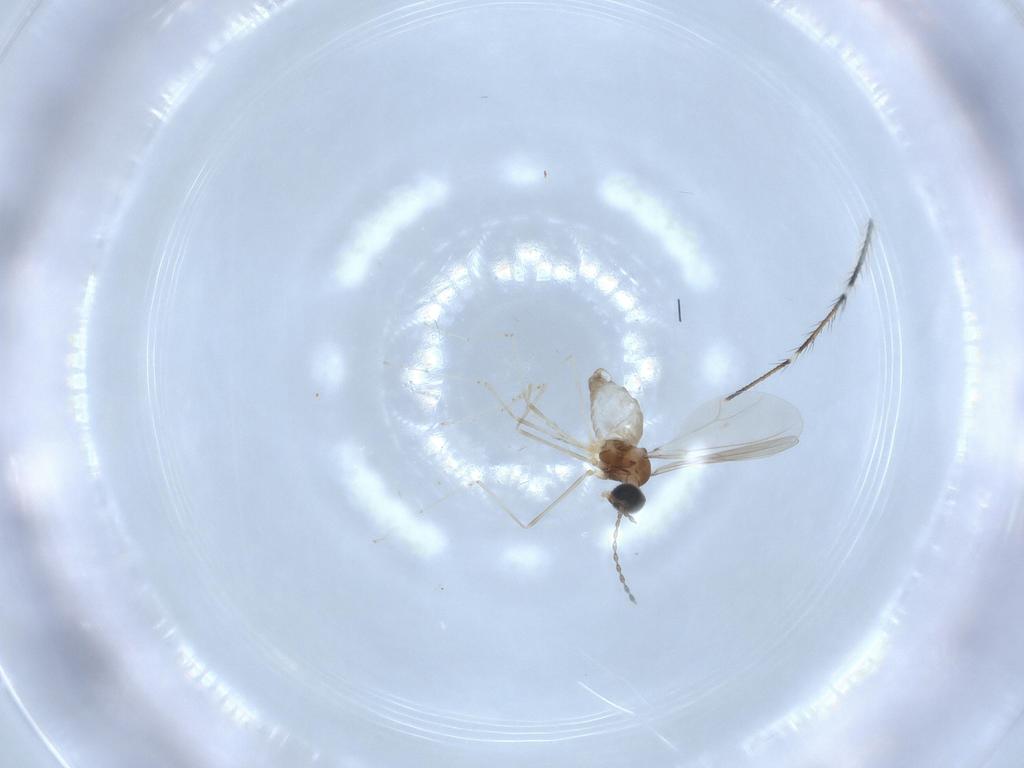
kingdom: Animalia
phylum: Arthropoda
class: Insecta
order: Diptera
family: Cecidomyiidae
